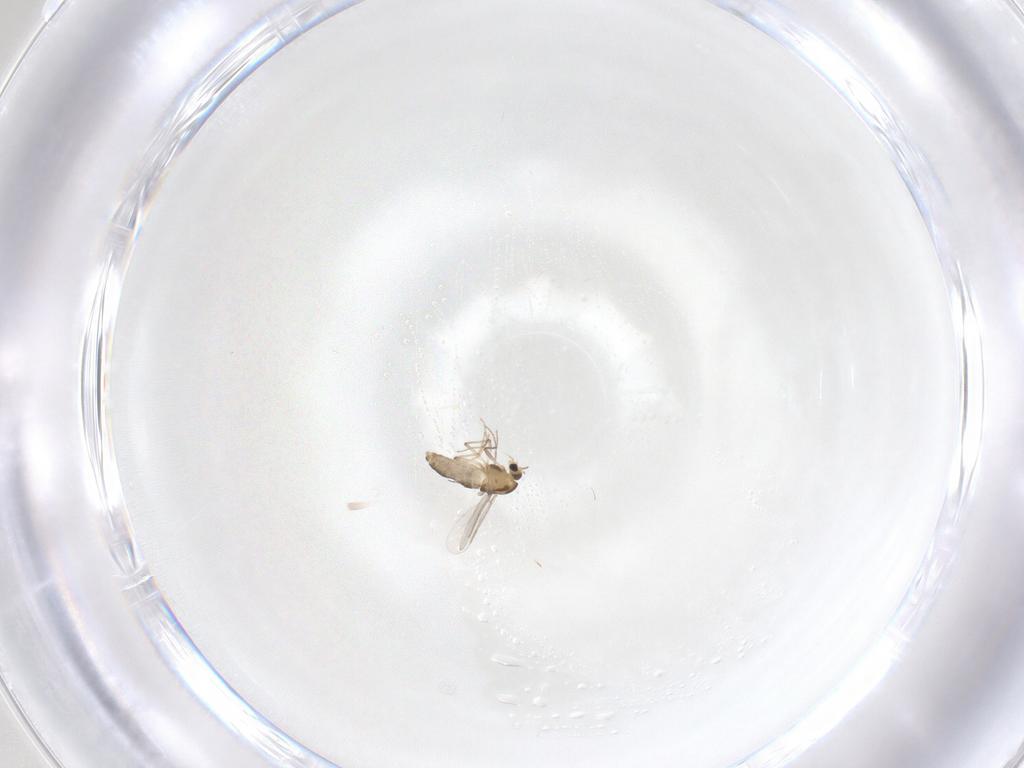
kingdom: Animalia
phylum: Arthropoda
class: Insecta
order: Diptera
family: Chironomidae
